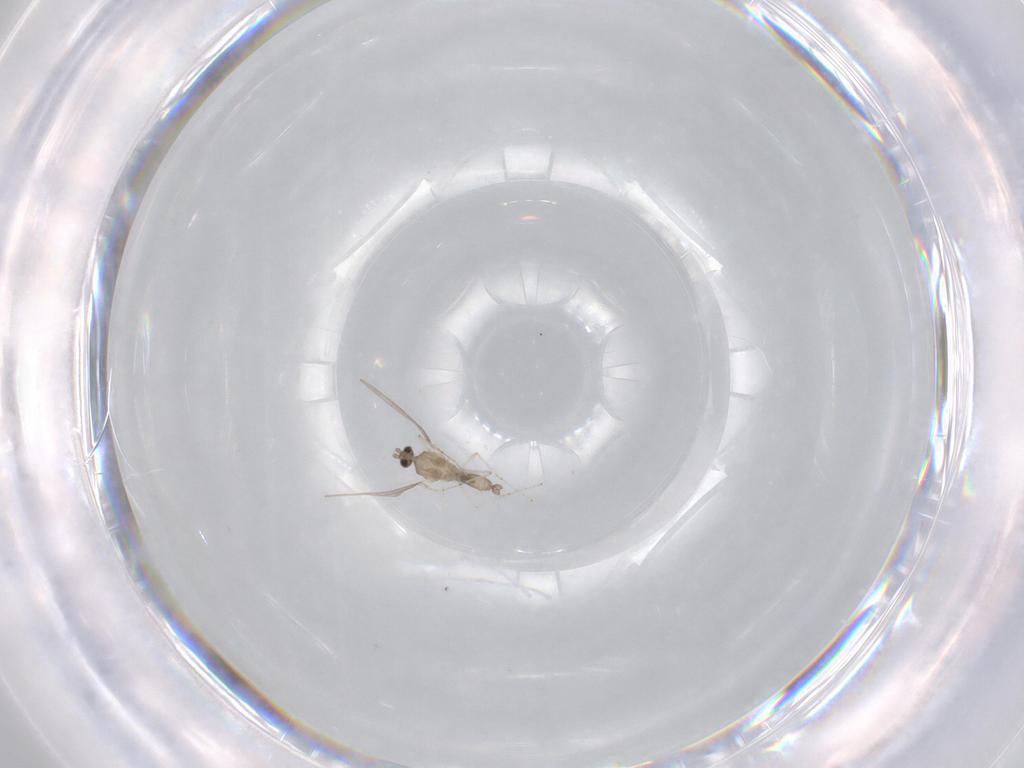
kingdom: Animalia
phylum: Arthropoda
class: Insecta
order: Diptera
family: Cecidomyiidae
